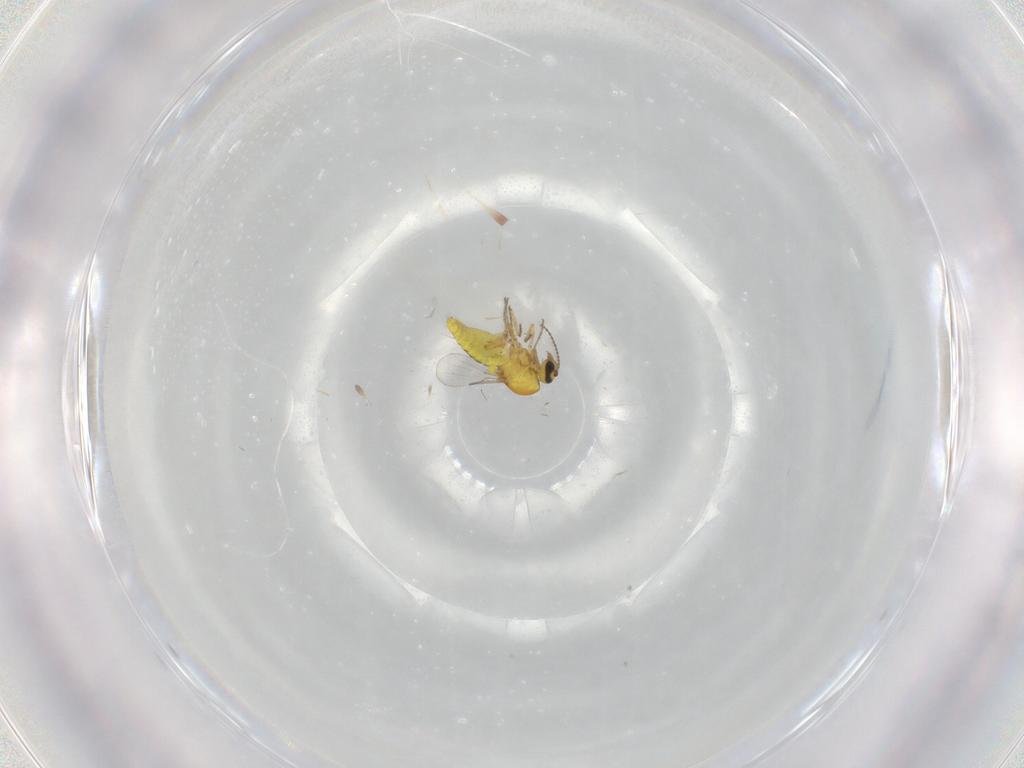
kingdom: Animalia
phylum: Arthropoda
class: Insecta
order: Diptera
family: Ceratopogonidae
